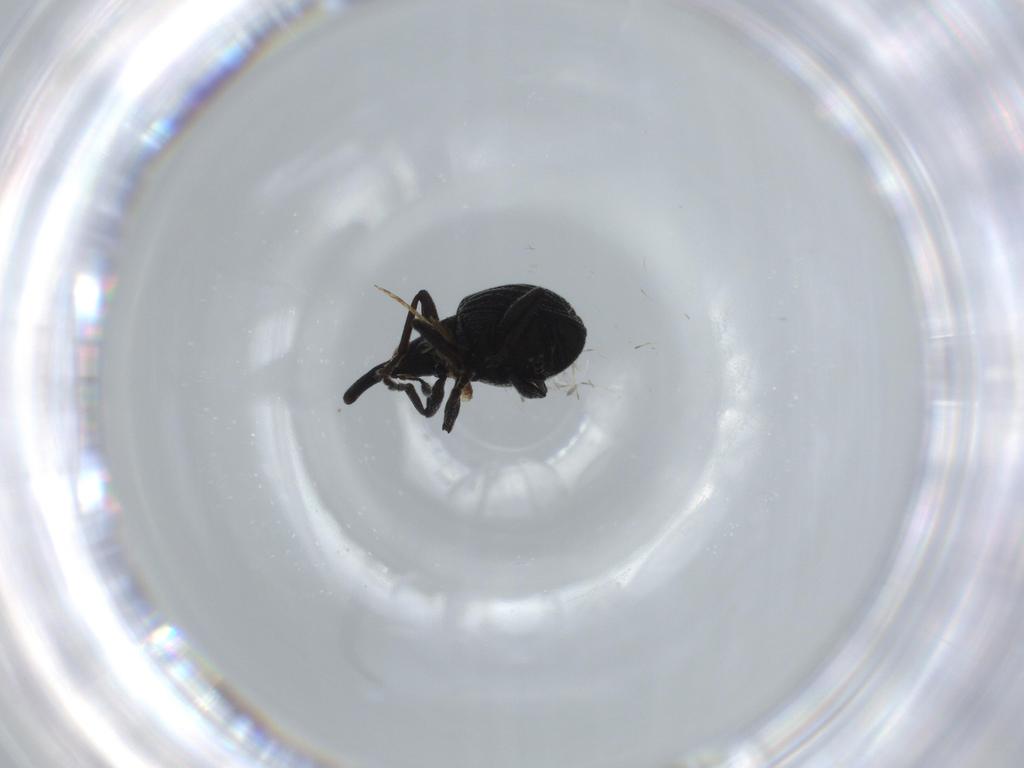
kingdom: Animalia
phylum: Arthropoda
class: Insecta
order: Coleoptera
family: Chrysomelidae
